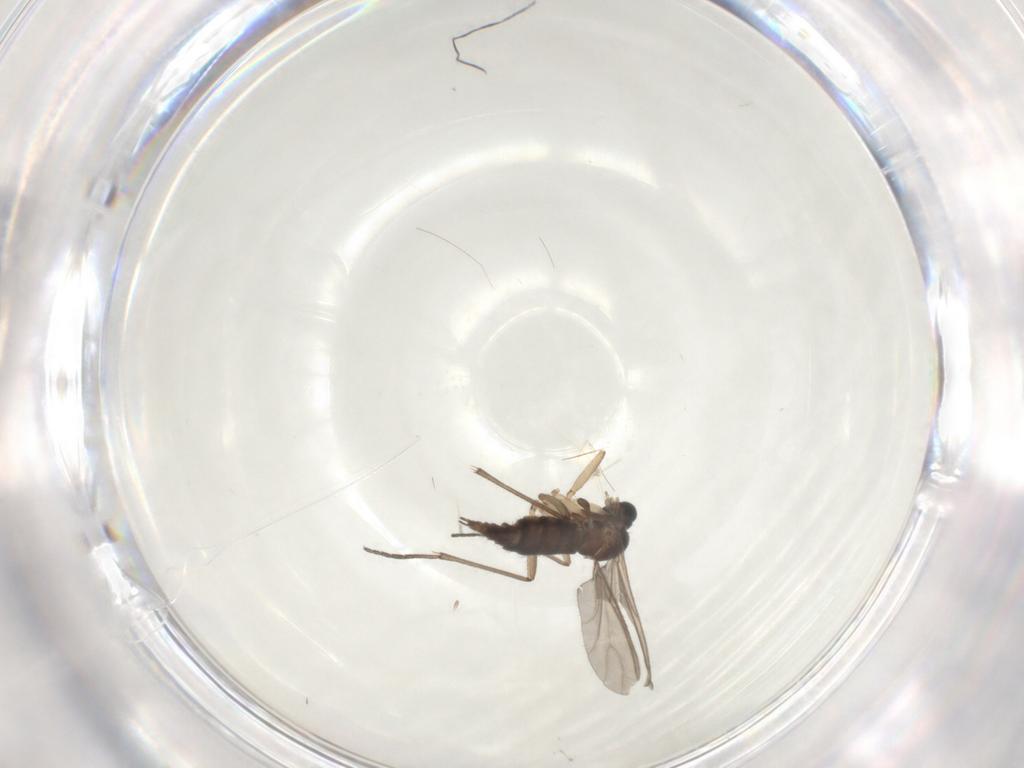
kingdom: Animalia
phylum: Arthropoda
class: Insecta
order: Diptera
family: Sciaridae
